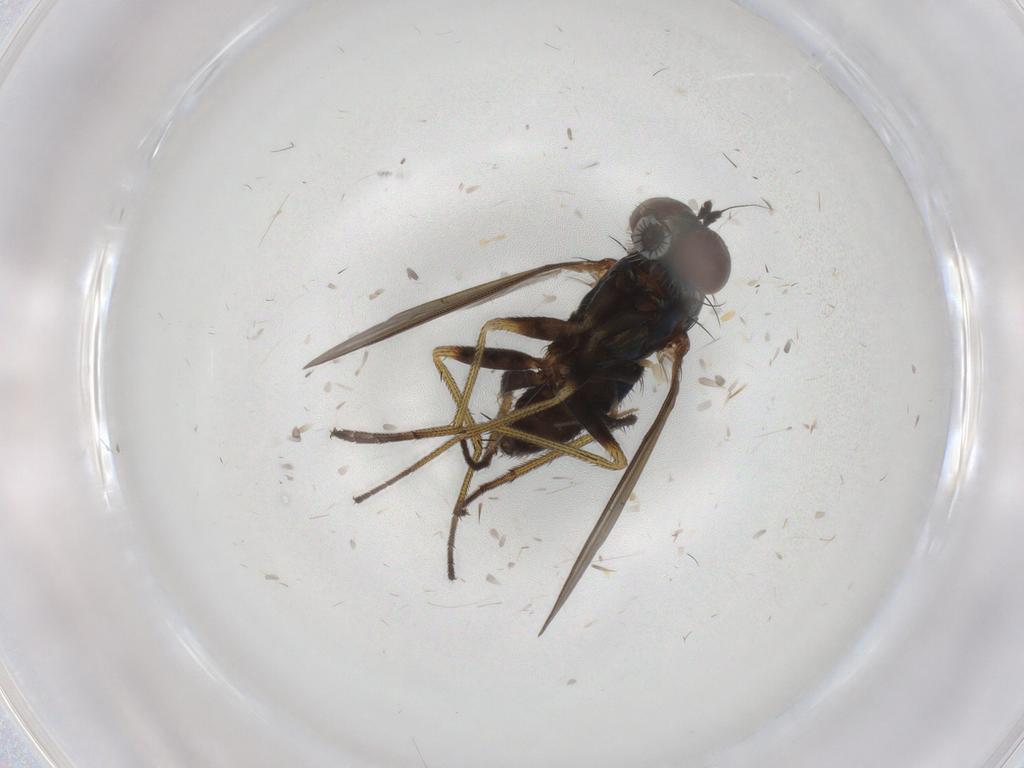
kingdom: Animalia
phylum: Arthropoda
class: Insecta
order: Diptera
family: Dolichopodidae
